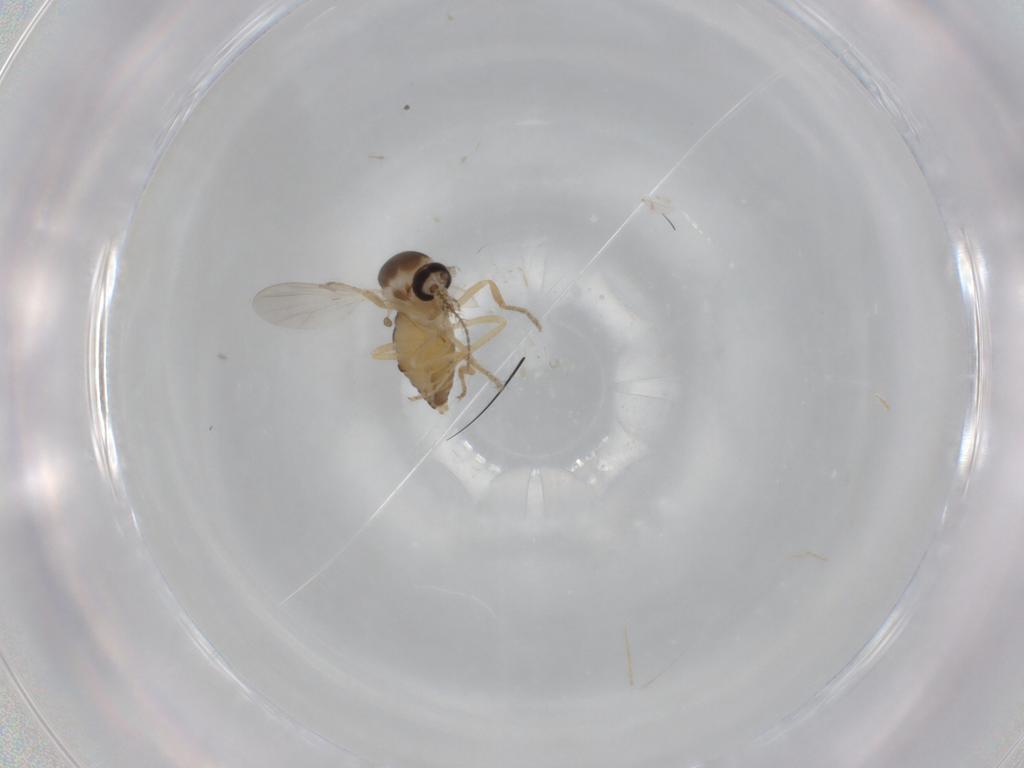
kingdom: Animalia
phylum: Arthropoda
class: Insecta
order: Diptera
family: Ceratopogonidae
